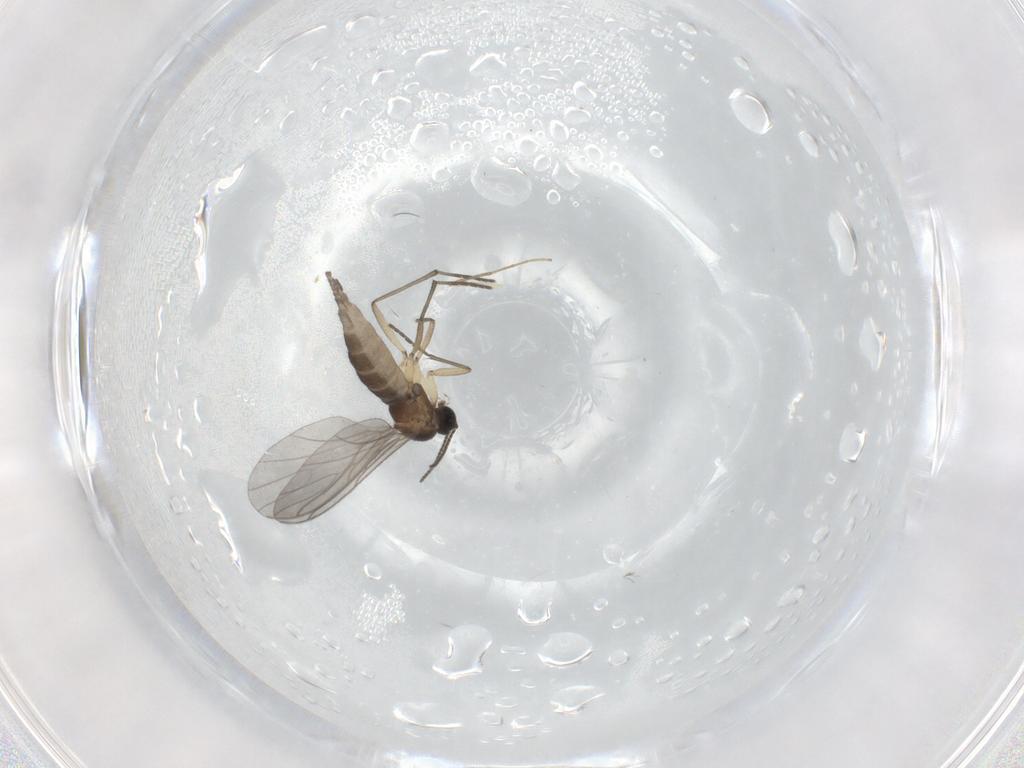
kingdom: Animalia
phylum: Arthropoda
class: Insecta
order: Diptera
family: Sciaridae
